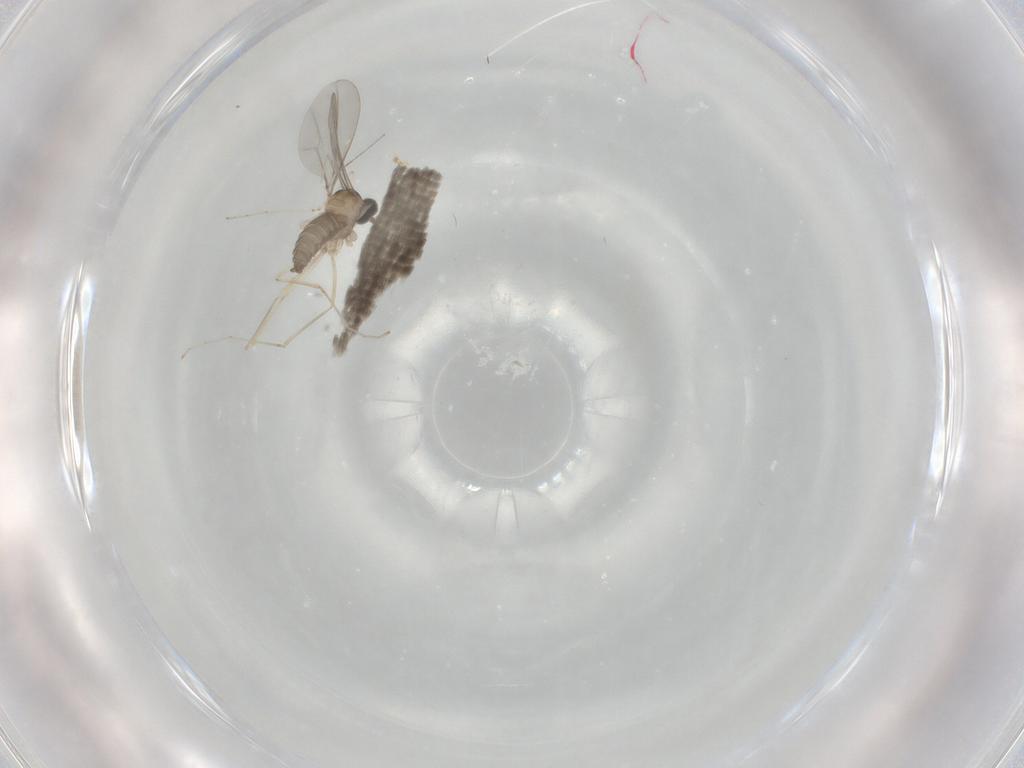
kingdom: Animalia
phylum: Arthropoda
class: Insecta
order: Diptera
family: Cecidomyiidae
